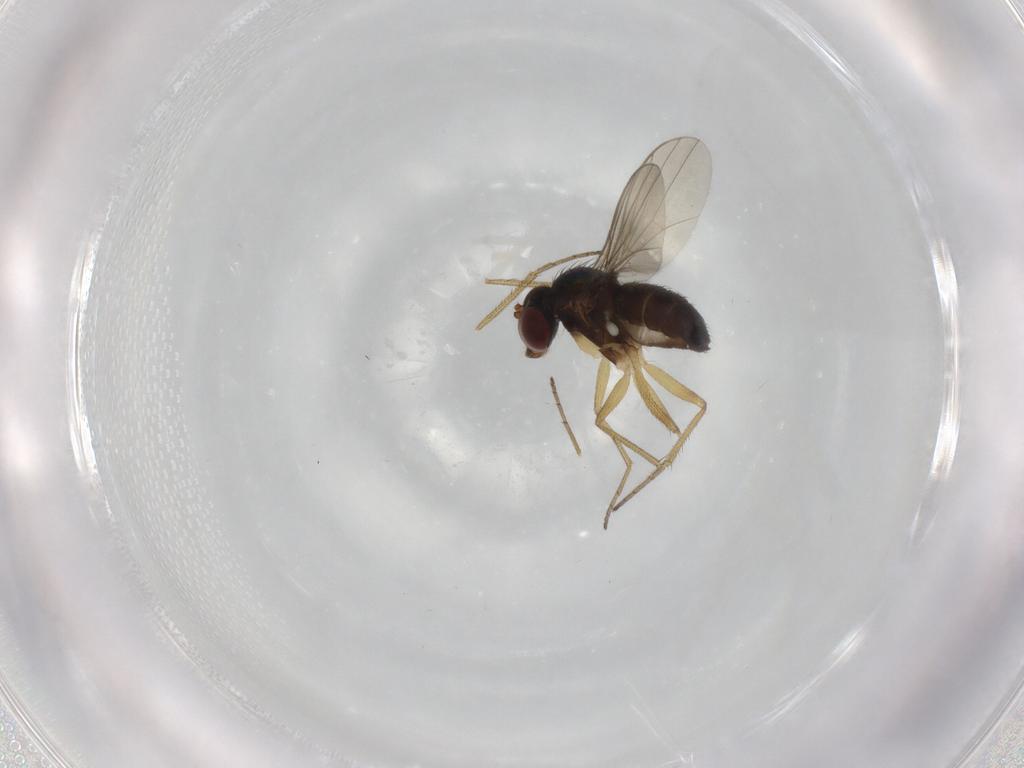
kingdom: Animalia
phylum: Arthropoda
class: Insecta
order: Diptera
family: Dolichopodidae
